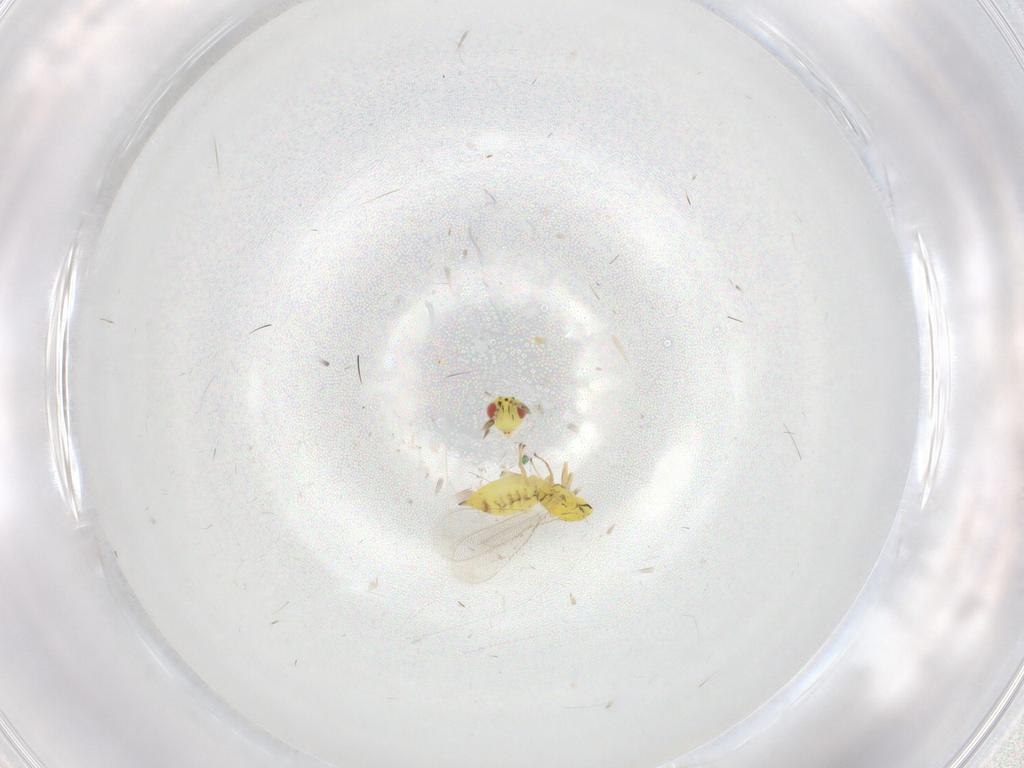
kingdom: Animalia
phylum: Arthropoda
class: Insecta
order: Hymenoptera
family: Eulophidae
